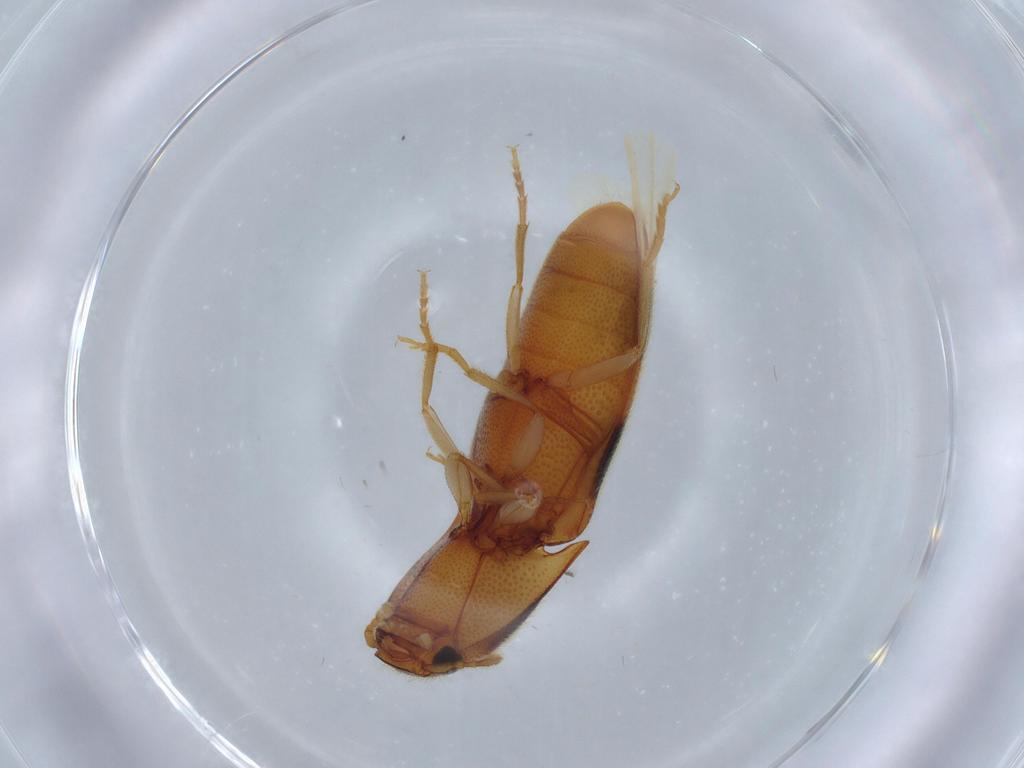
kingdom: Animalia
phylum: Arthropoda
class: Insecta
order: Coleoptera
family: Elateridae
